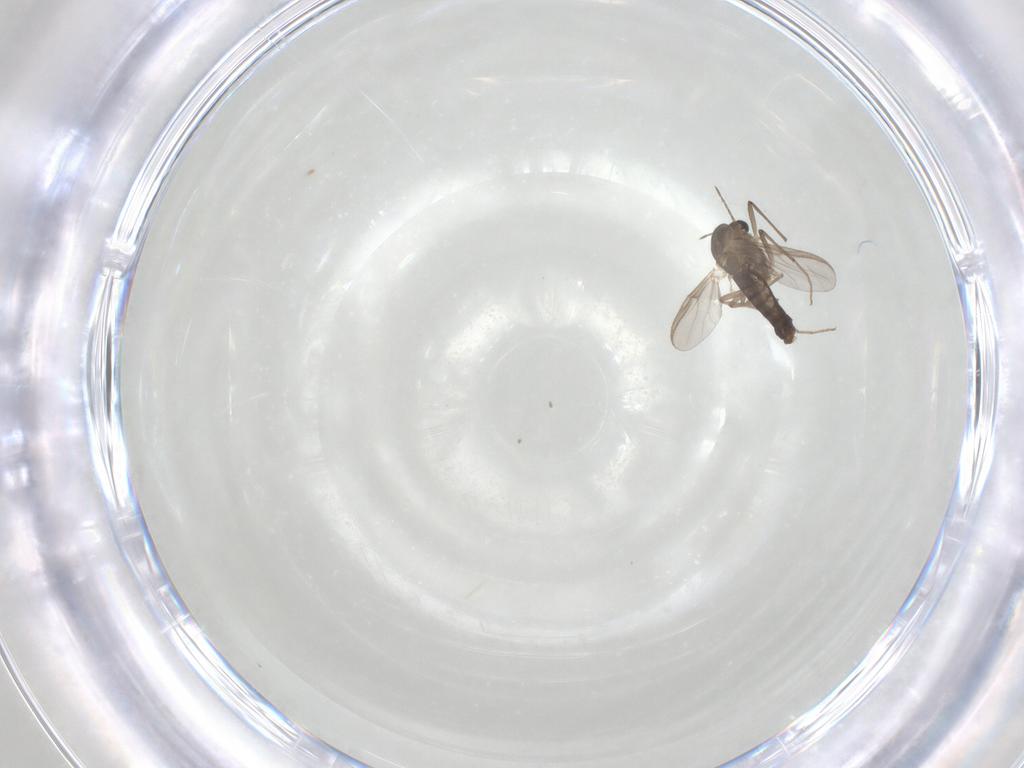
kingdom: Animalia
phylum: Arthropoda
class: Insecta
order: Diptera
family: Chironomidae
